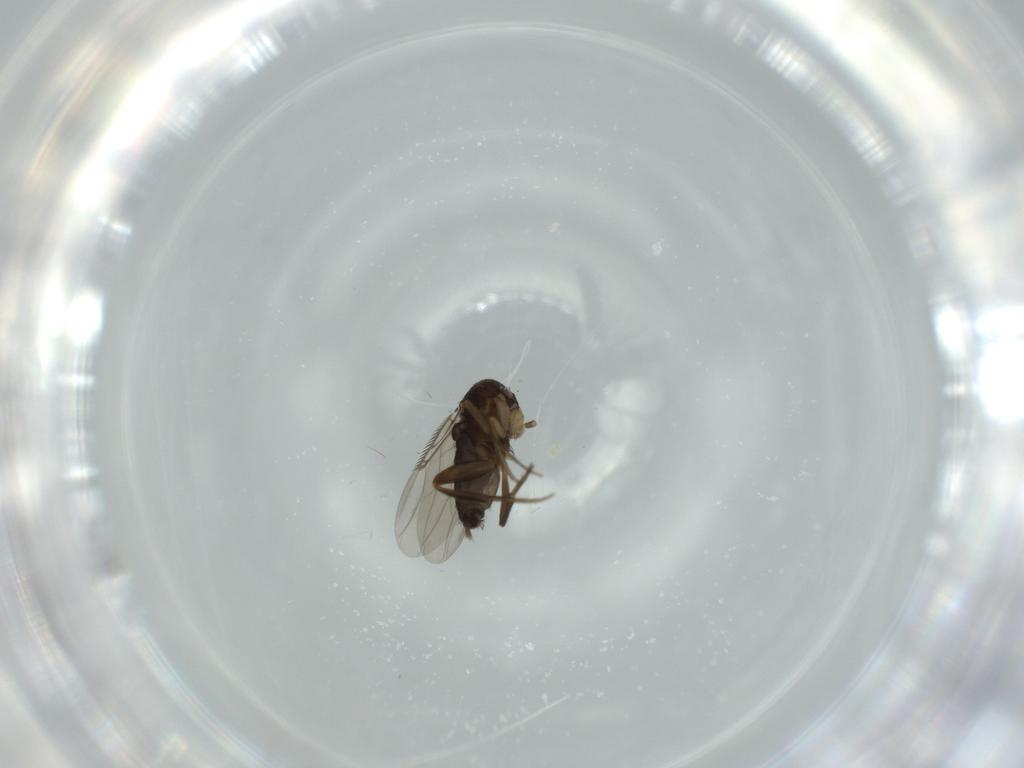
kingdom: Animalia
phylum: Arthropoda
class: Insecta
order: Diptera
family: Phoridae
